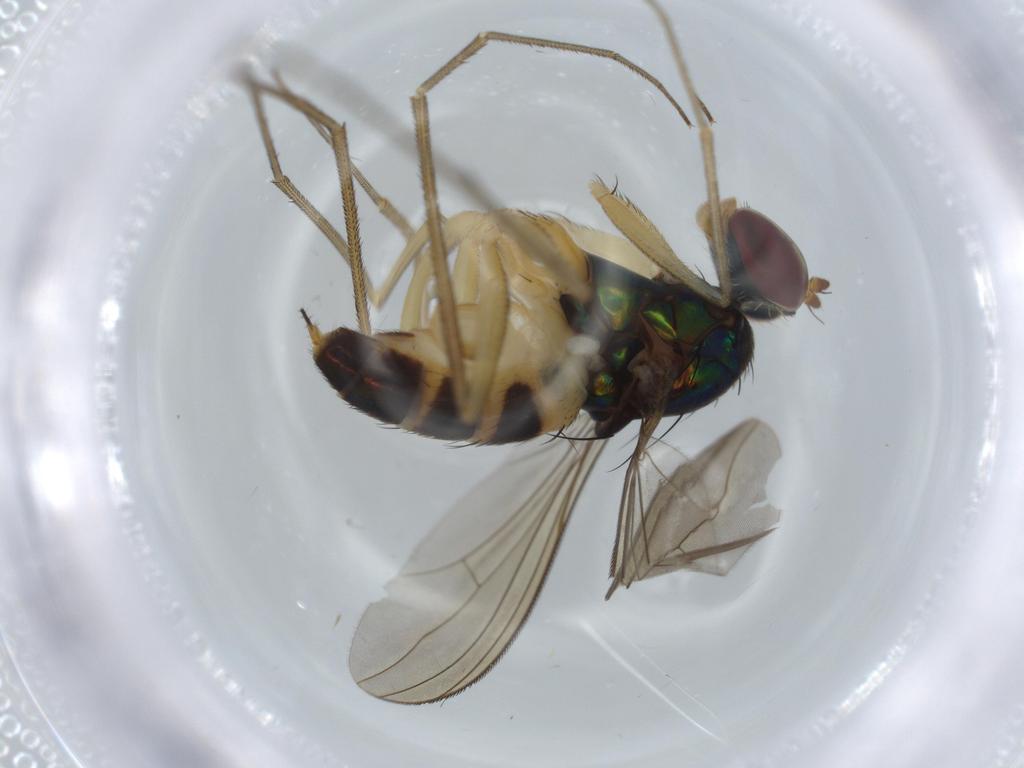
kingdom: Animalia
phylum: Arthropoda
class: Insecta
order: Diptera
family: Dolichopodidae
